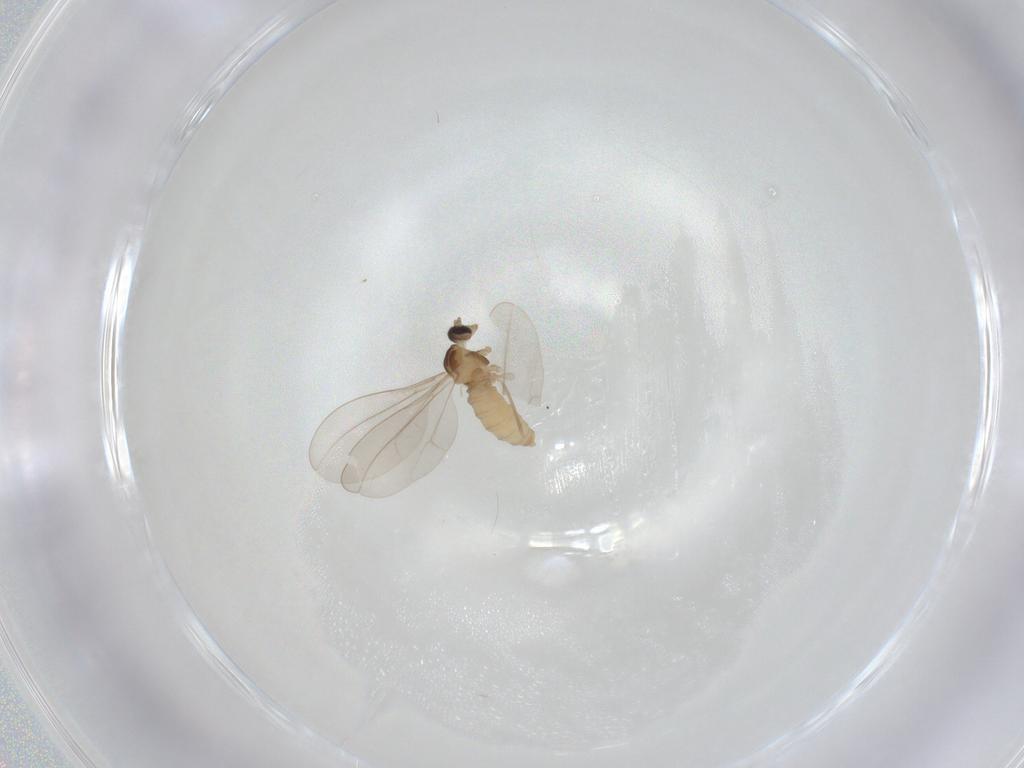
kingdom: Animalia
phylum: Arthropoda
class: Insecta
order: Diptera
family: Cecidomyiidae
